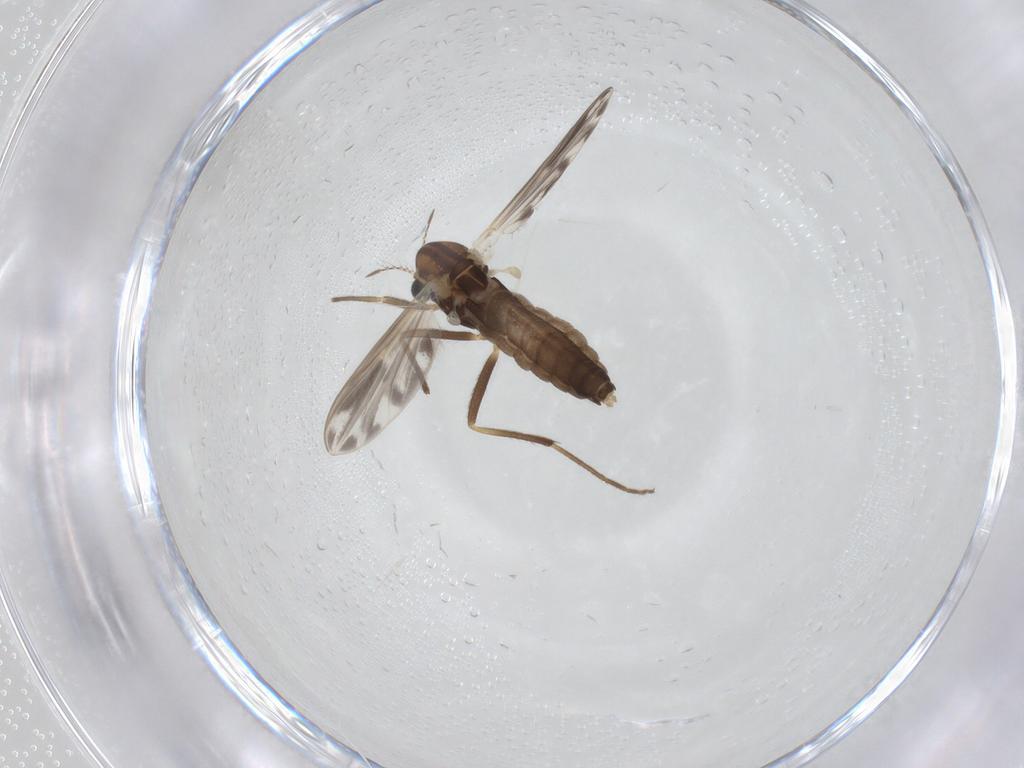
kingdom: Animalia
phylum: Arthropoda
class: Insecta
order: Diptera
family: Chironomidae
